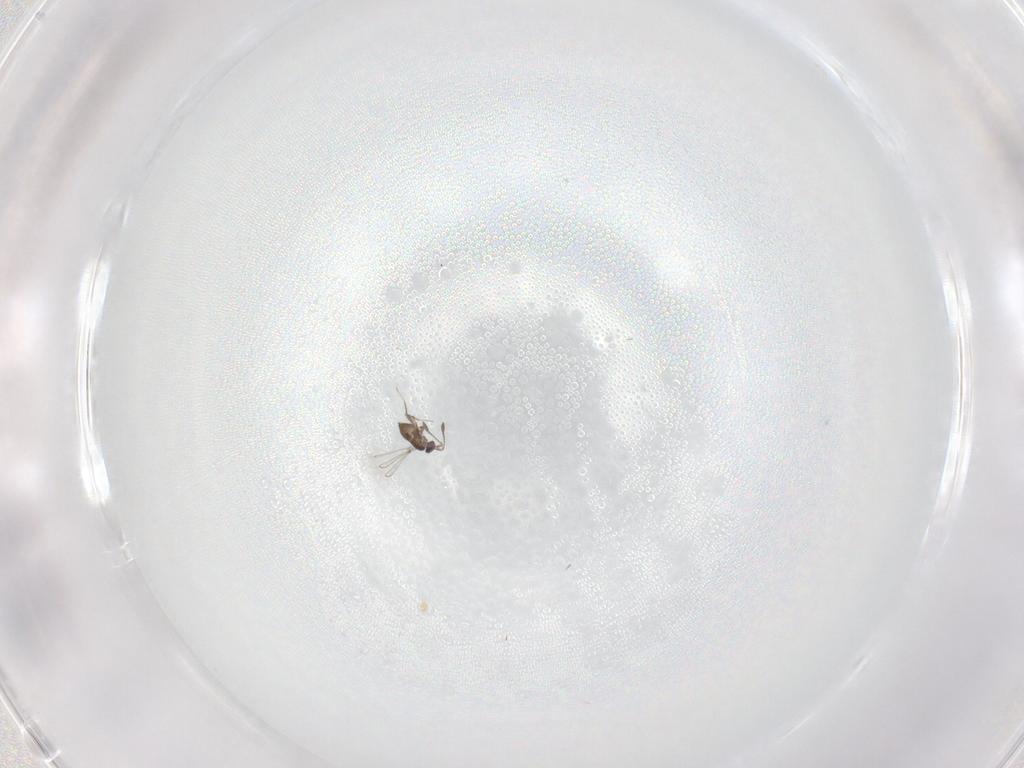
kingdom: Animalia
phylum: Arthropoda
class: Insecta
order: Hymenoptera
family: Mymaridae
